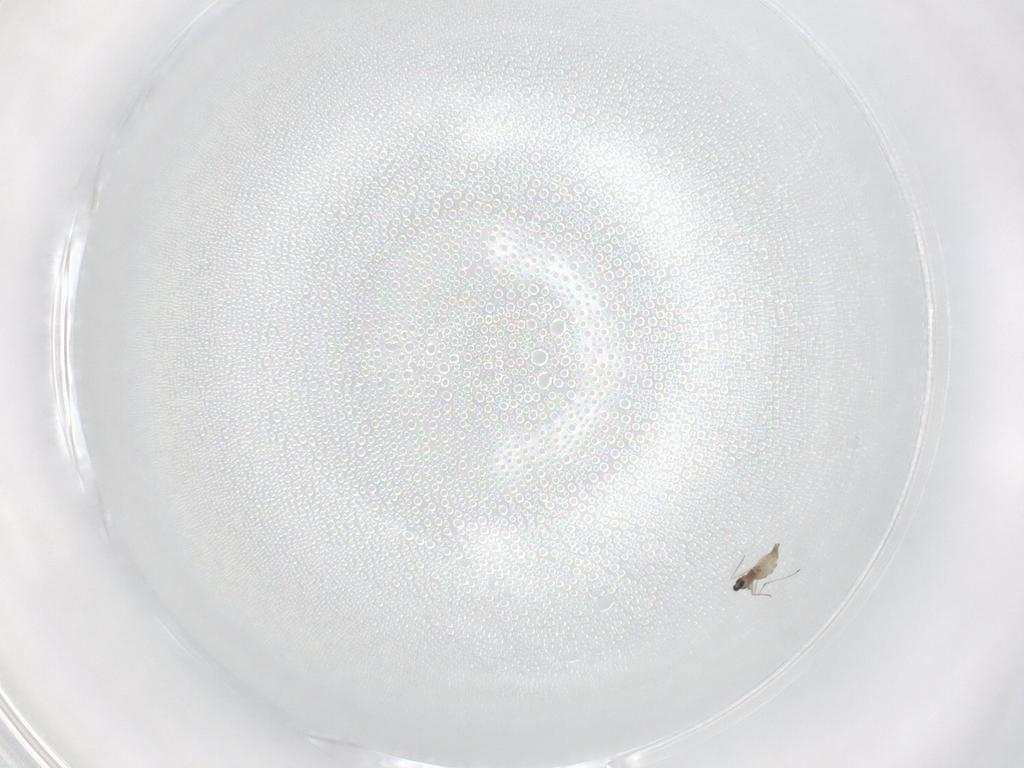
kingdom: Animalia
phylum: Arthropoda
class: Insecta
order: Diptera
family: Cecidomyiidae
